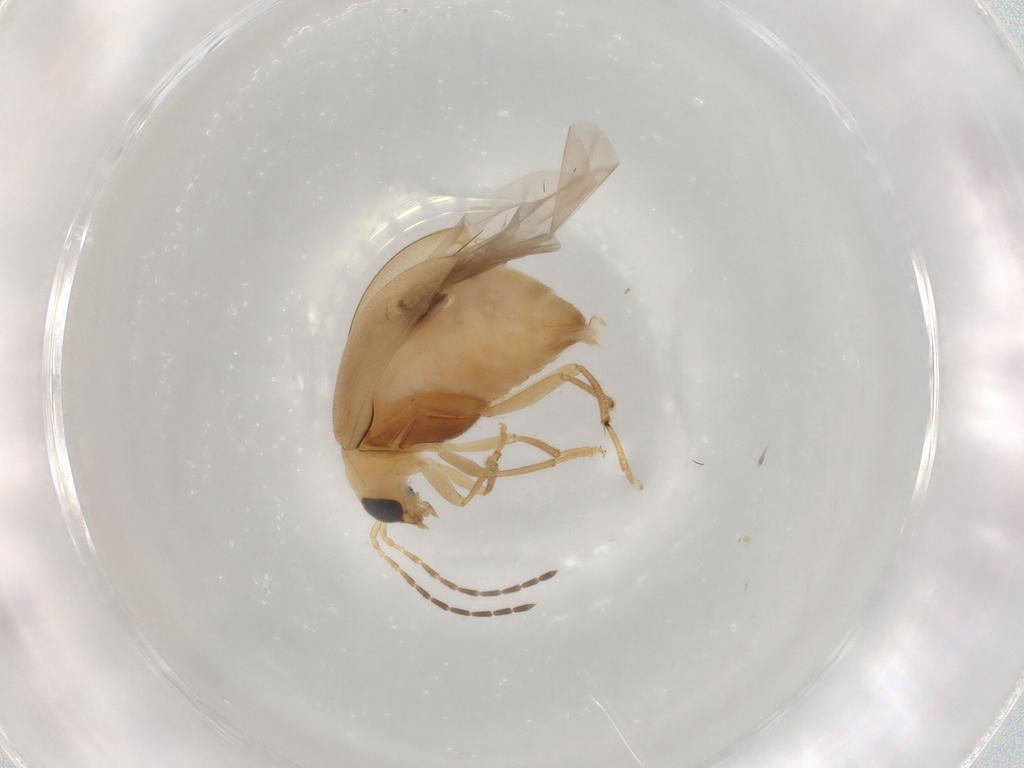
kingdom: Animalia
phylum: Arthropoda
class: Insecta
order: Coleoptera
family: Chrysomelidae
